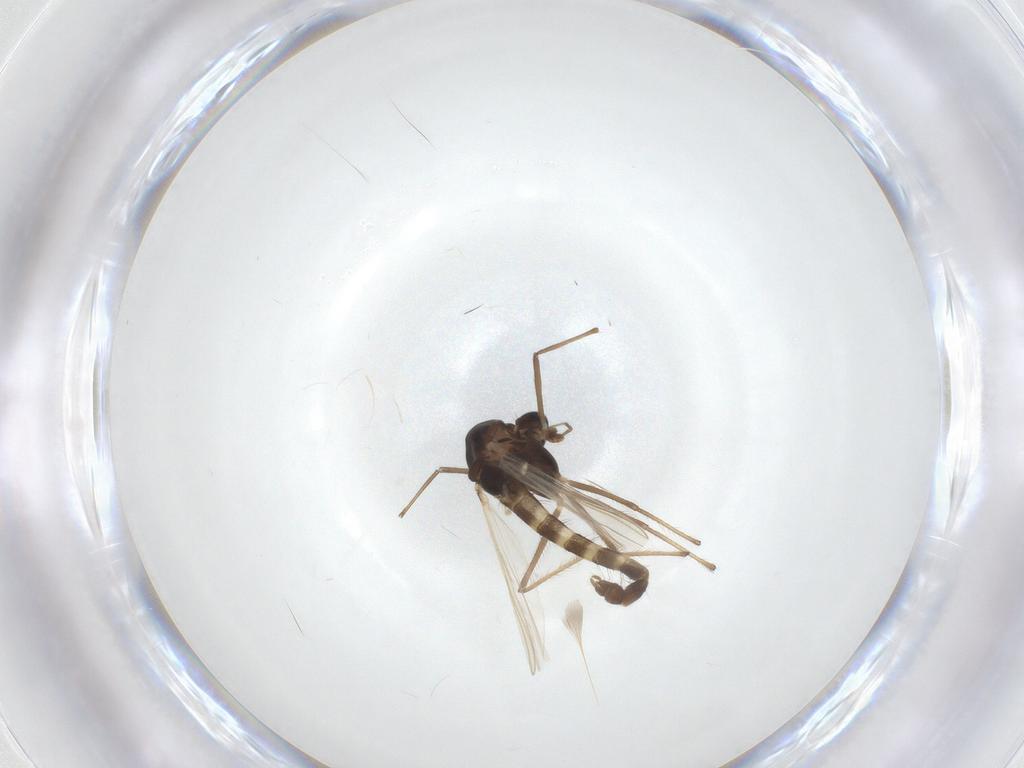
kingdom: Animalia
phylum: Arthropoda
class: Insecta
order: Diptera
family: Chironomidae
